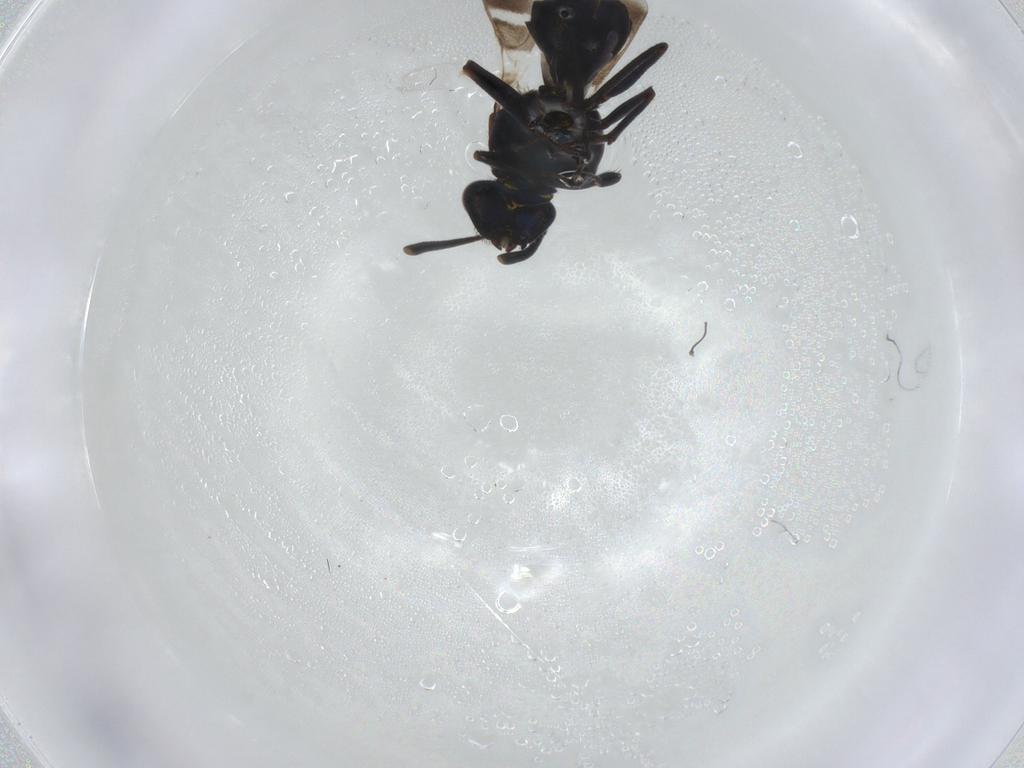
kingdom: Animalia
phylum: Arthropoda
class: Insecta
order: Hymenoptera
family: Eupelmidae
